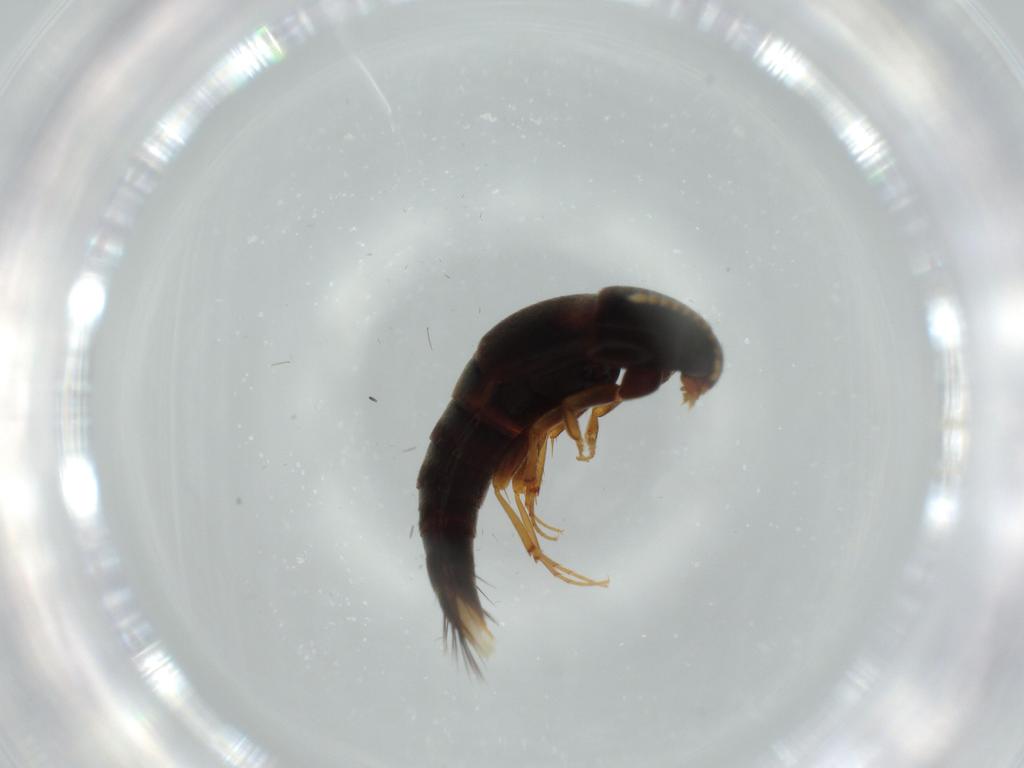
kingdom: Animalia
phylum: Arthropoda
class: Insecta
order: Coleoptera
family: Staphylinidae
